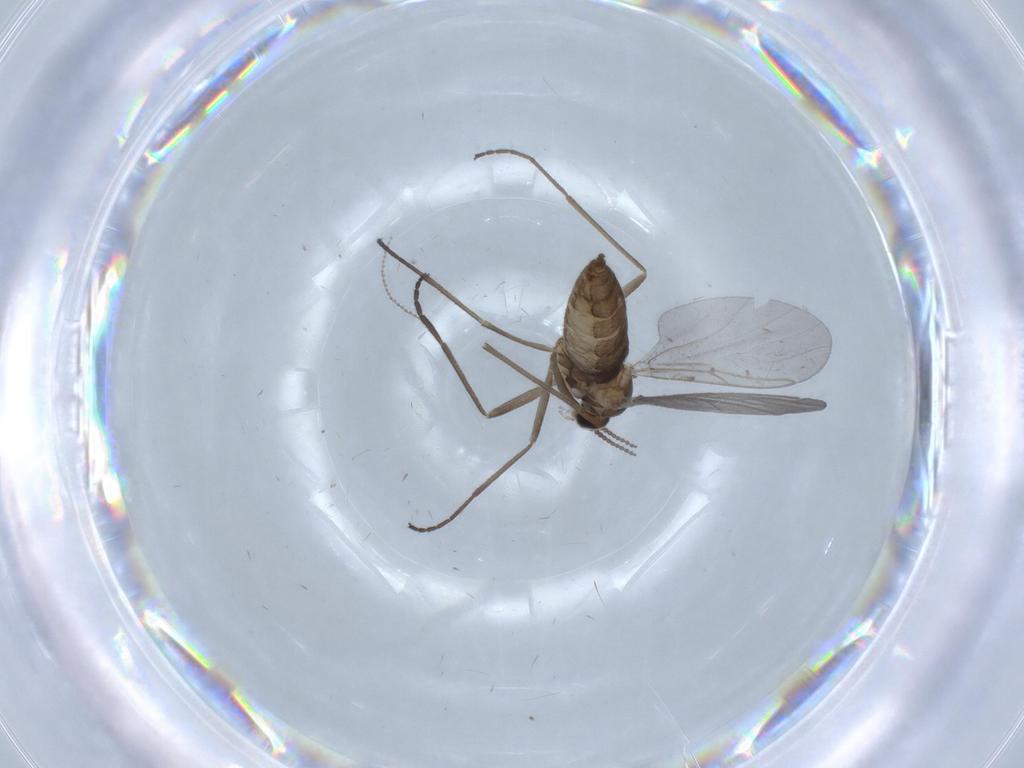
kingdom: Animalia
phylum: Arthropoda
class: Insecta
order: Diptera
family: Cecidomyiidae
